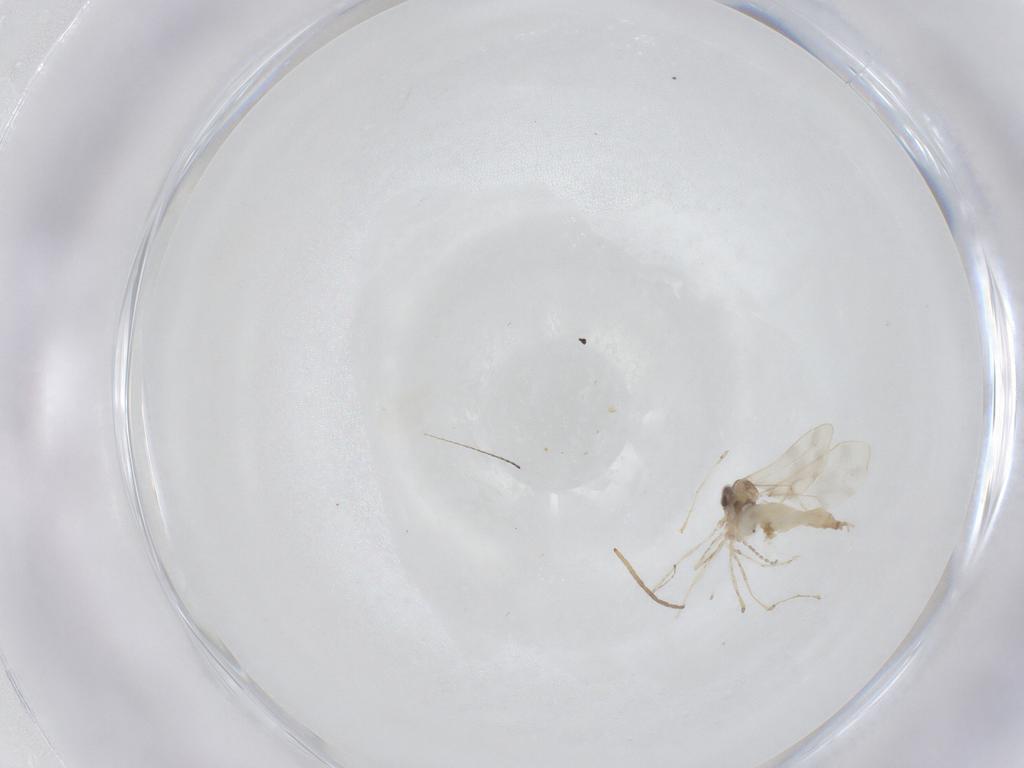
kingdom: Animalia
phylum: Arthropoda
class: Insecta
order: Diptera
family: Cecidomyiidae
